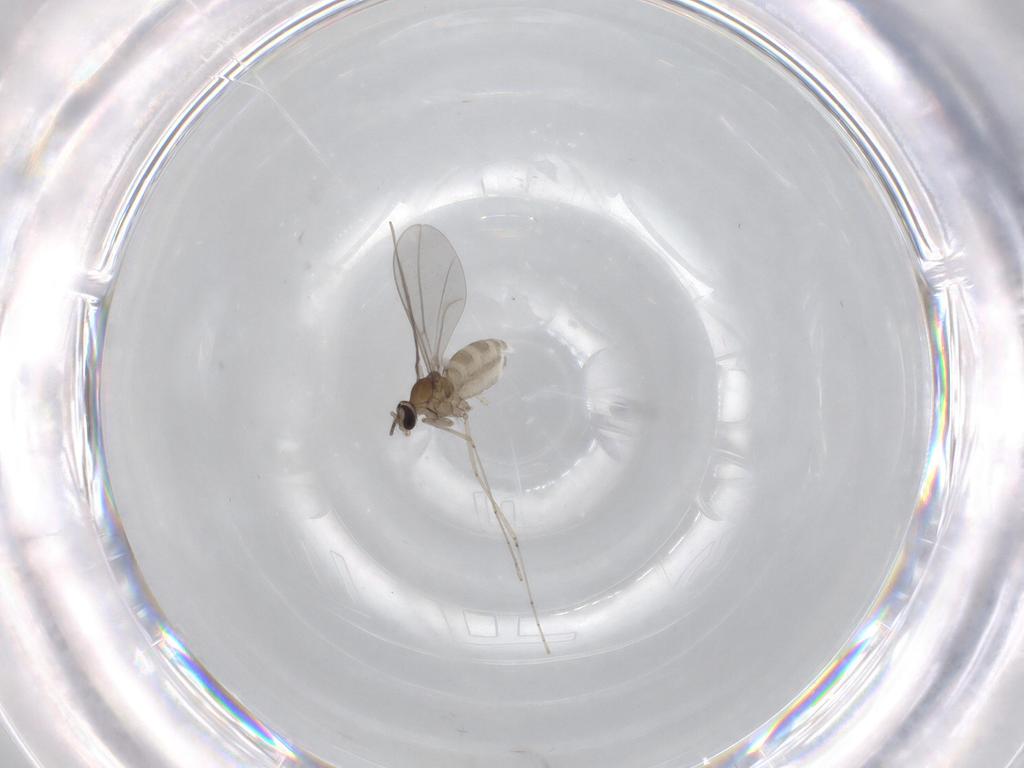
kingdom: Animalia
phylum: Arthropoda
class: Insecta
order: Diptera
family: Cecidomyiidae
